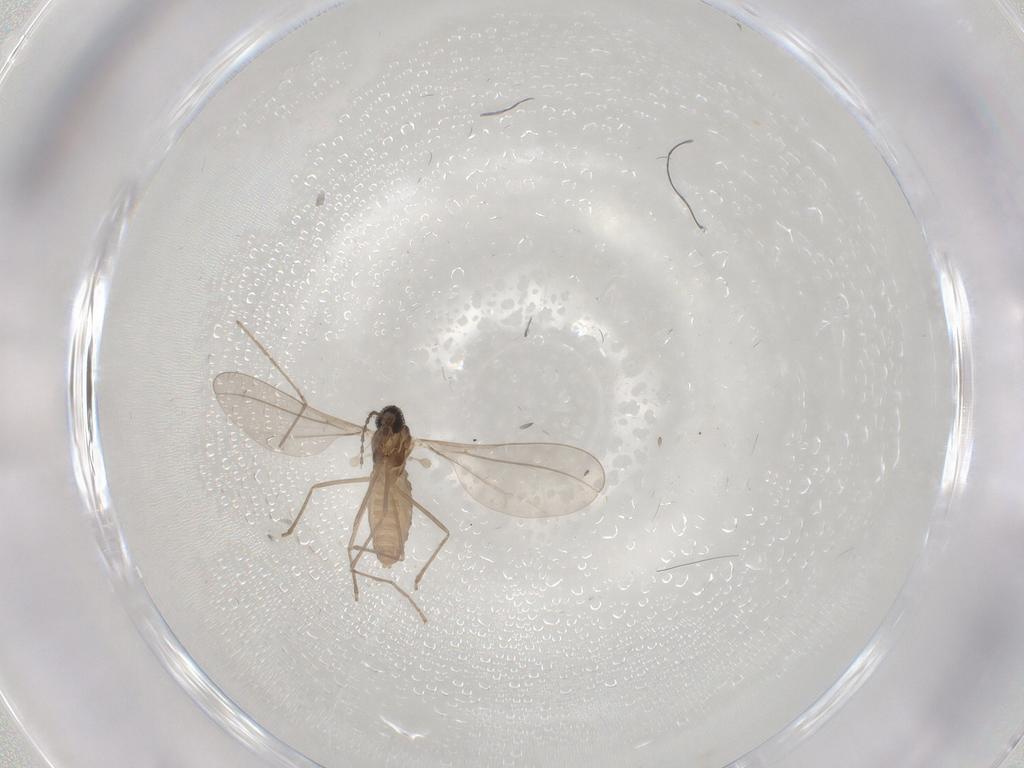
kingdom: Animalia
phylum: Arthropoda
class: Insecta
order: Diptera
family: Cecidomyiidae
